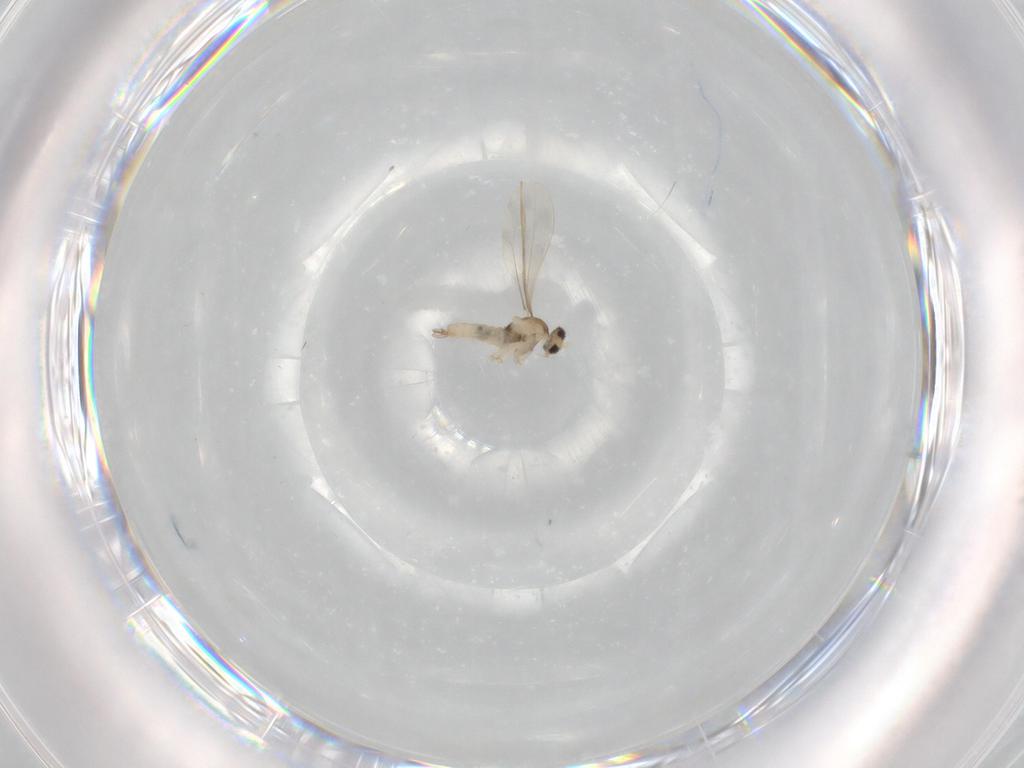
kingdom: Animalia
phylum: Arthropoda
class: Insecta
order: Diptera
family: Cecidomyiidae
